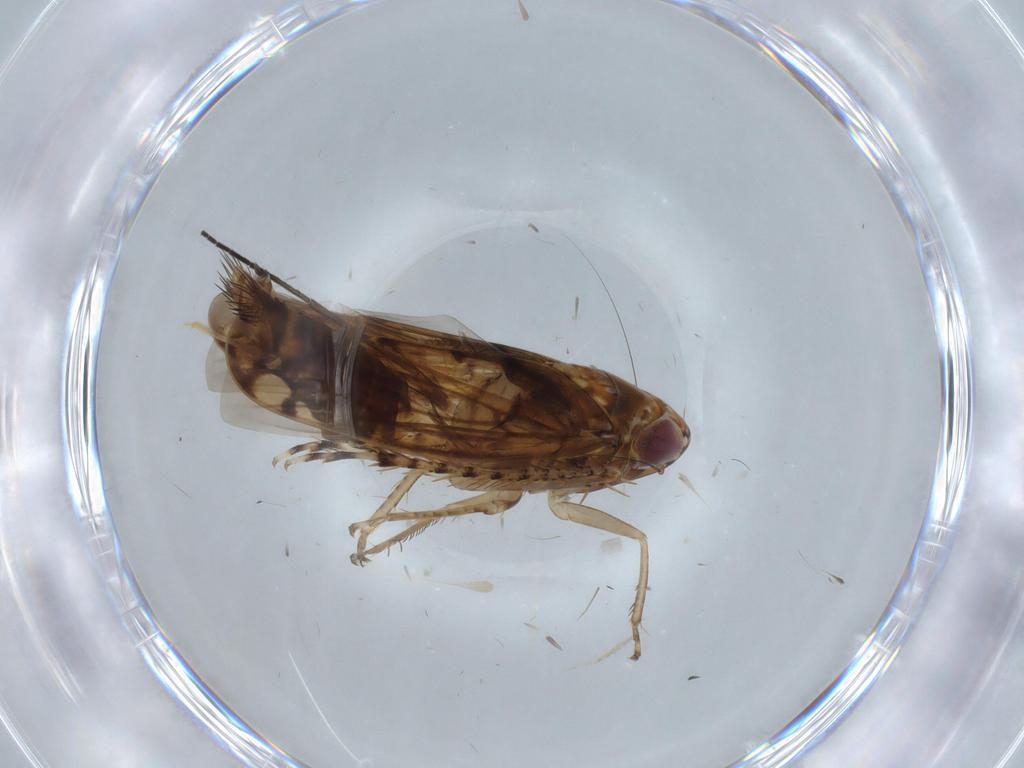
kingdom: Animalia
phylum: Arthropoda
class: Insecta
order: Hemiptera
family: Cicadellidae
